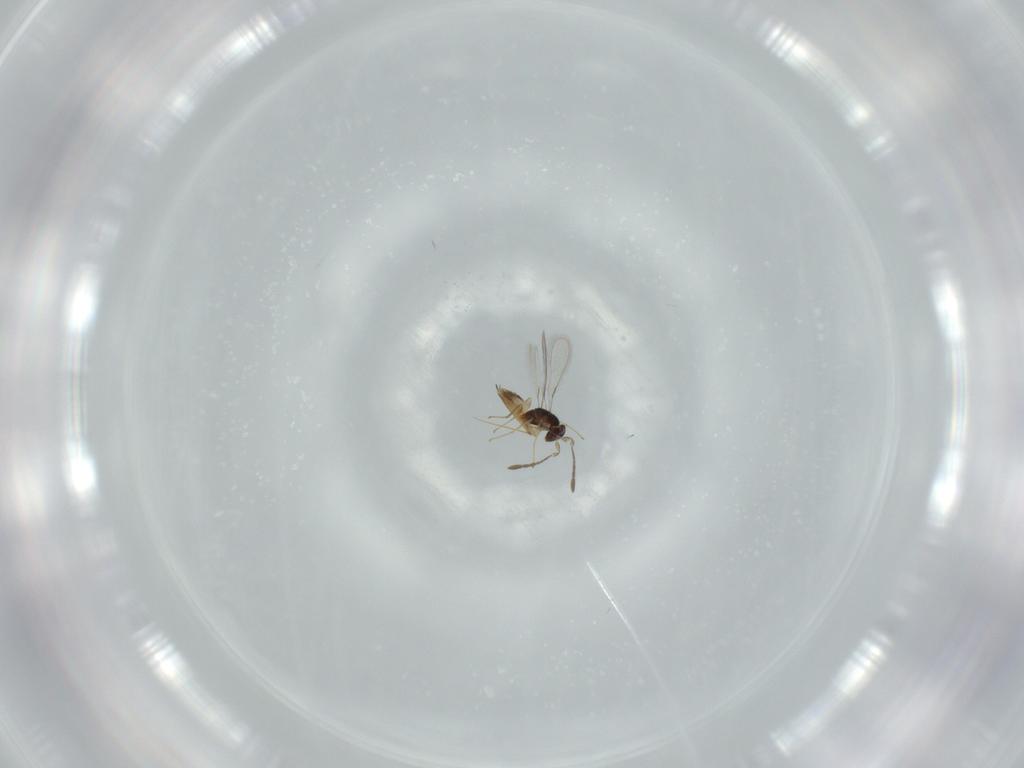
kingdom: Animalia
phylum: Arthropoda
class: Insecta
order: Hymenoptera
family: Mymaridae
